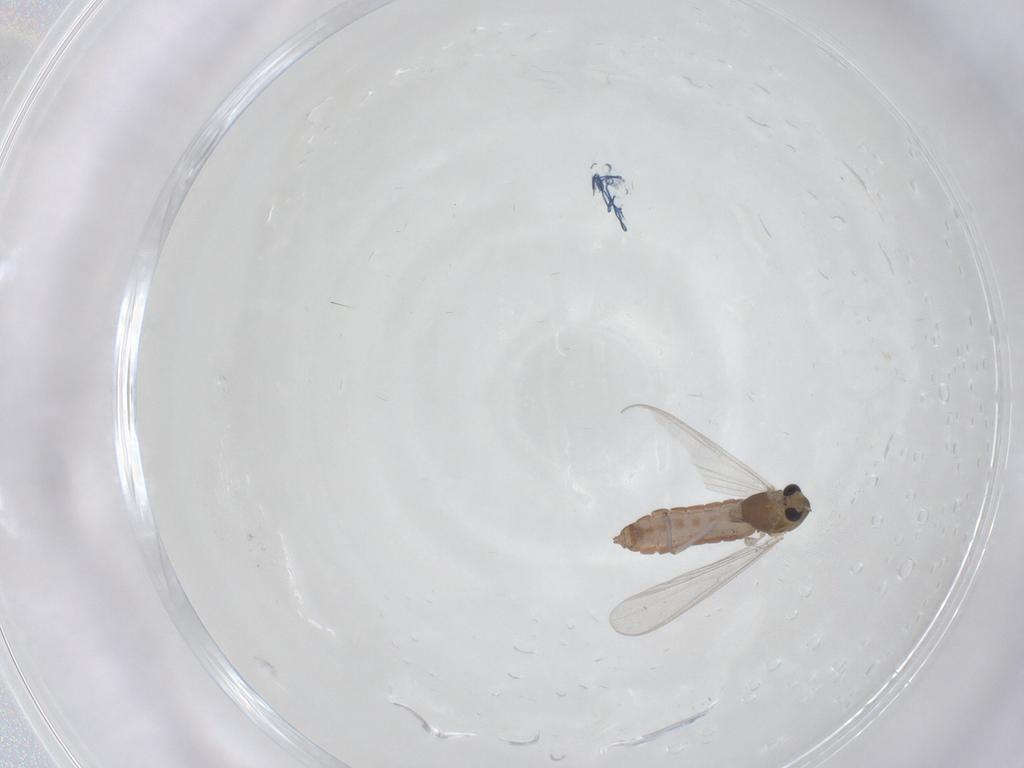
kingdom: Animalia
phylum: Arthropoda
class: Insecta
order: Diptera
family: Chironomidae
